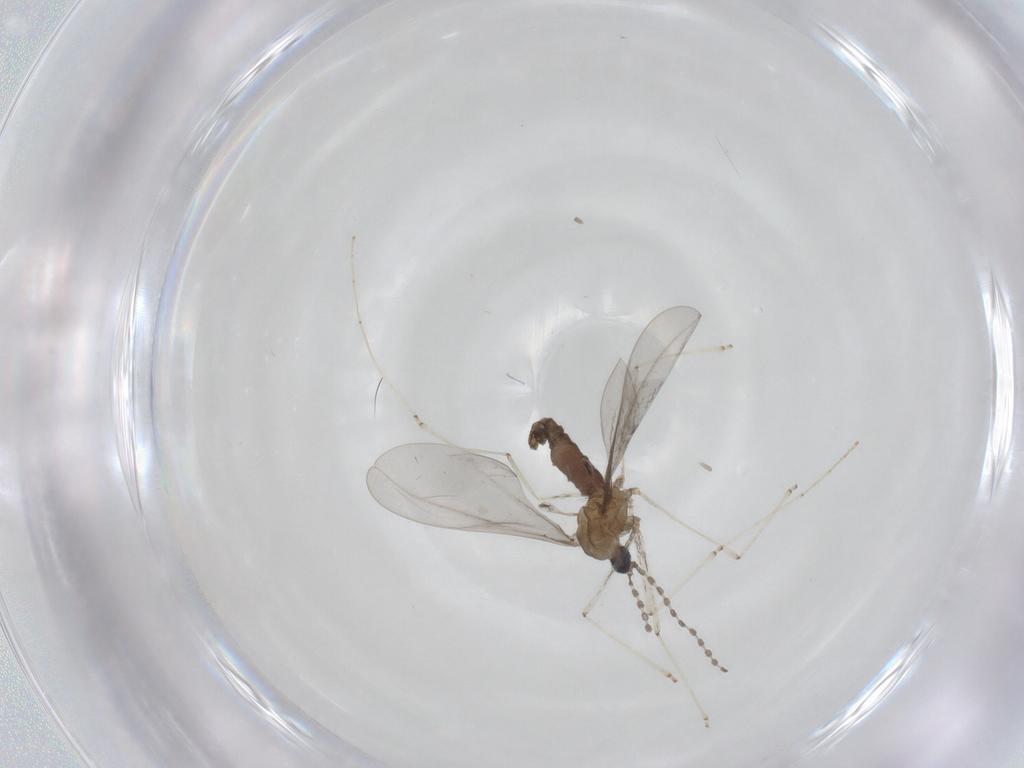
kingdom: Animalia
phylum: Arthropoda
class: Insecta
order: Diptera
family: Cecidomyiidae
